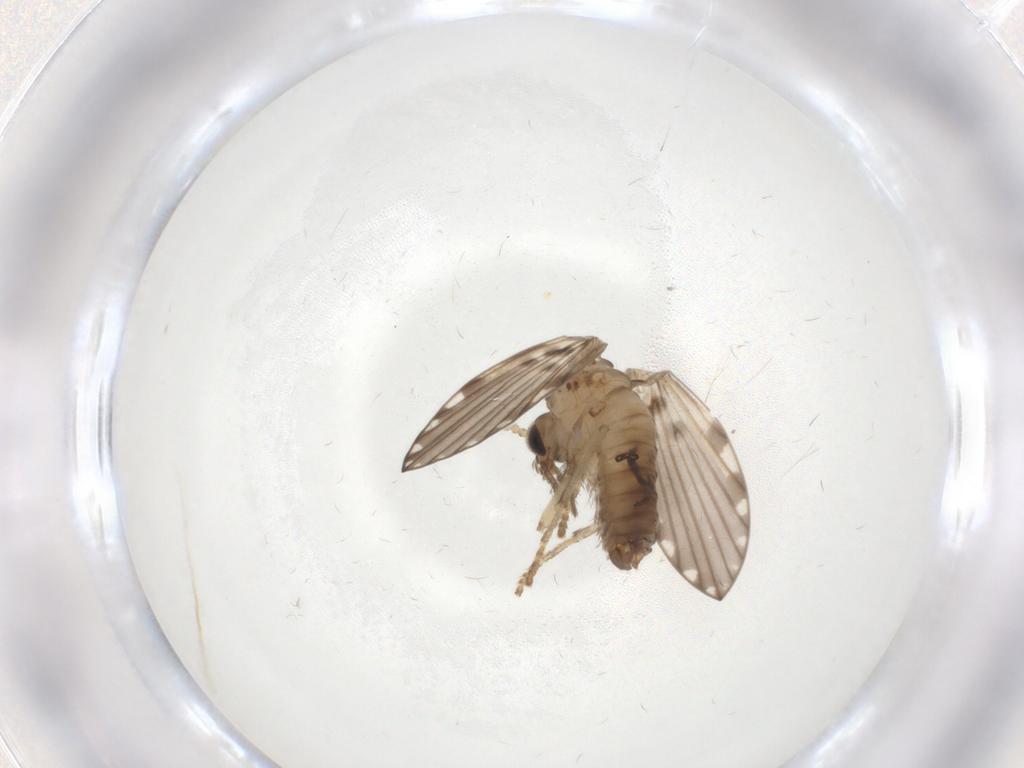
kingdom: Animalia
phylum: Arthropoda
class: Insecta
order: Diptera
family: Psychodidae
